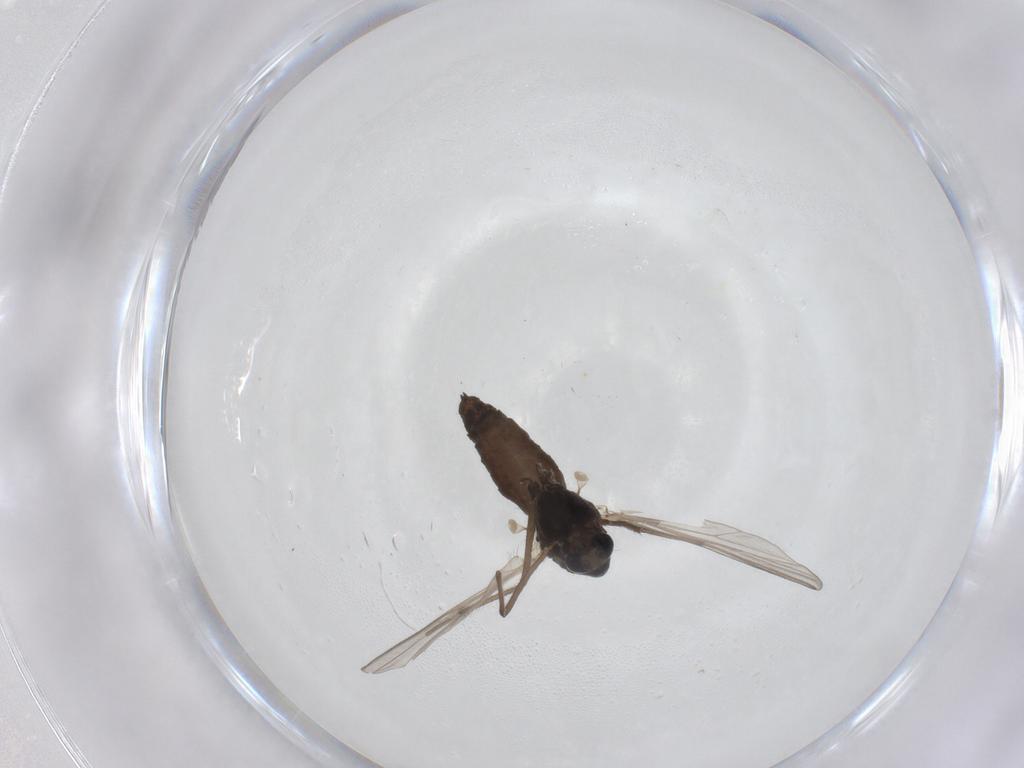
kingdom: Animalia
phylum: Arthropoda
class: Insecta
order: Diptera
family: Chironomidae
